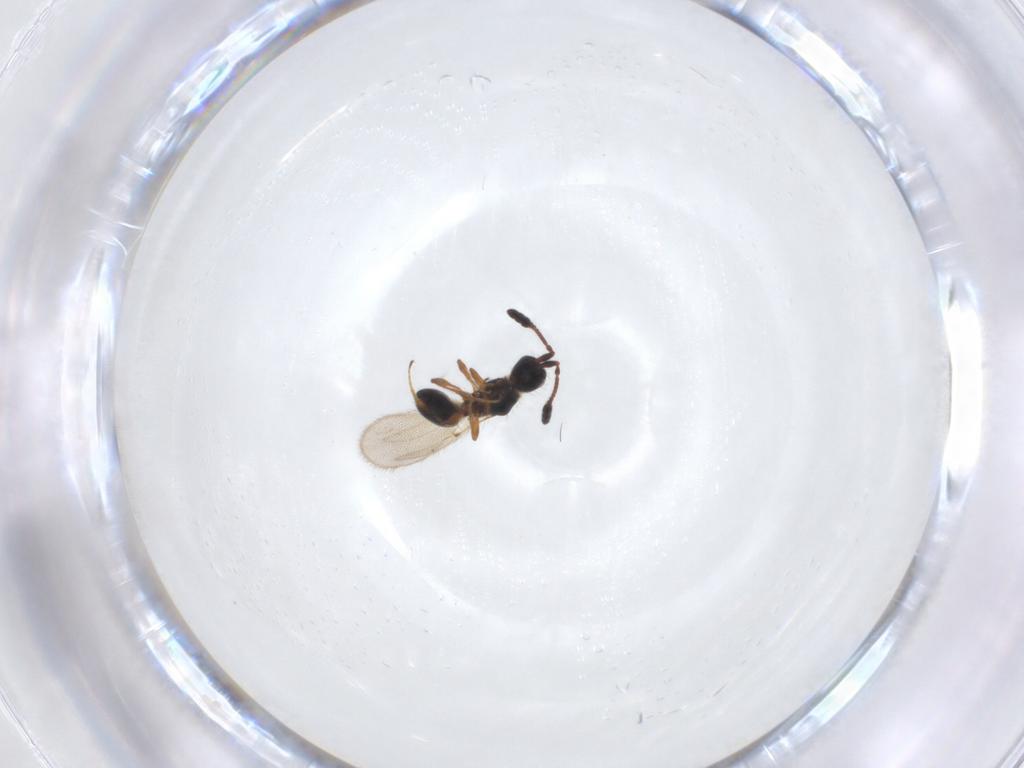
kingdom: Animalia
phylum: Arthropoda
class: Insecta
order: Hymenoptera
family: Diapriidae
